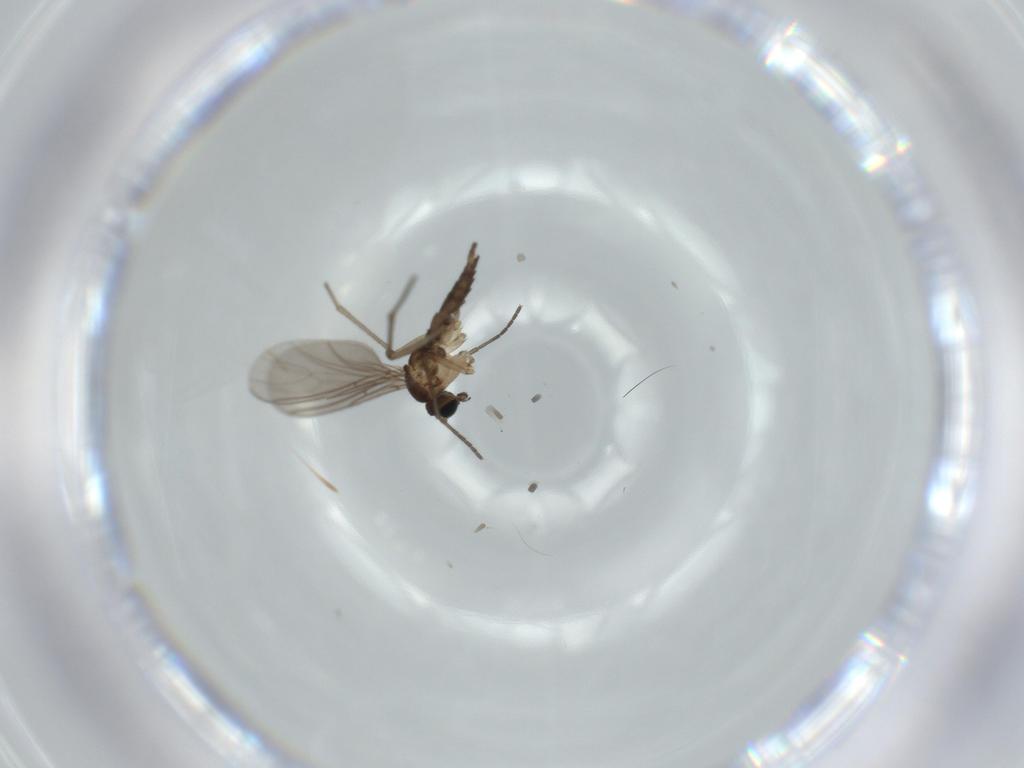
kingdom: Animalia
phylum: Arthropoda
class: Insecta
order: Diptera
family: Sciaridae
